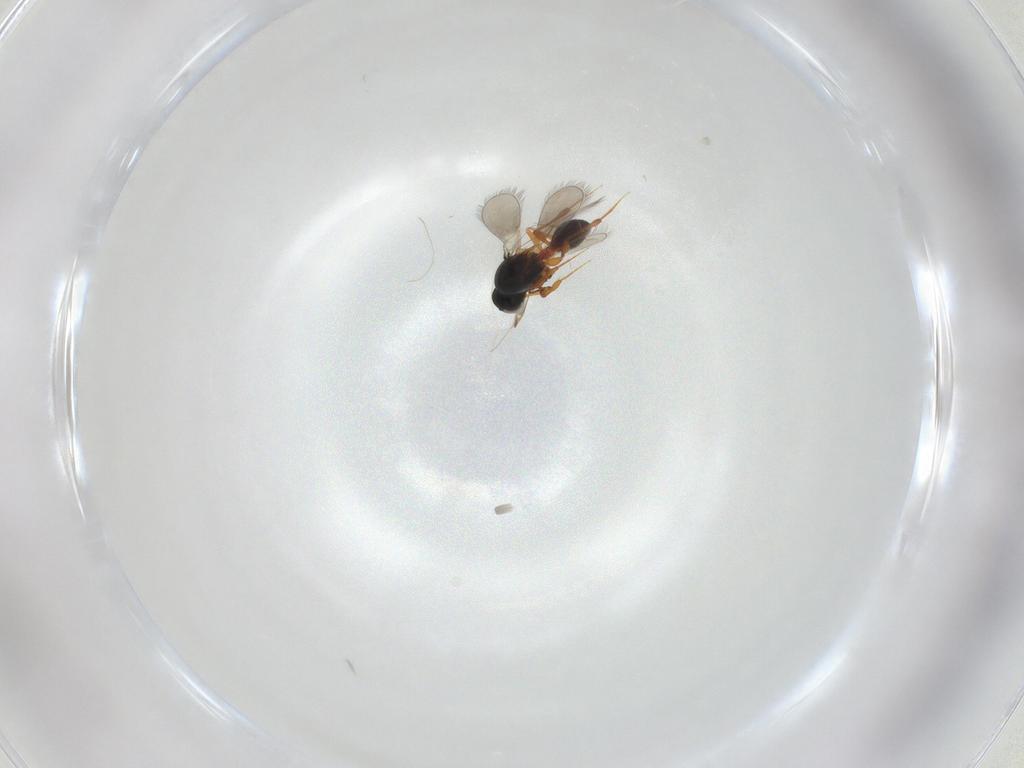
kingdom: Animalia
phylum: Arthropoda
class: Insecta
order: Hymenoptera
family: Platygastridae
